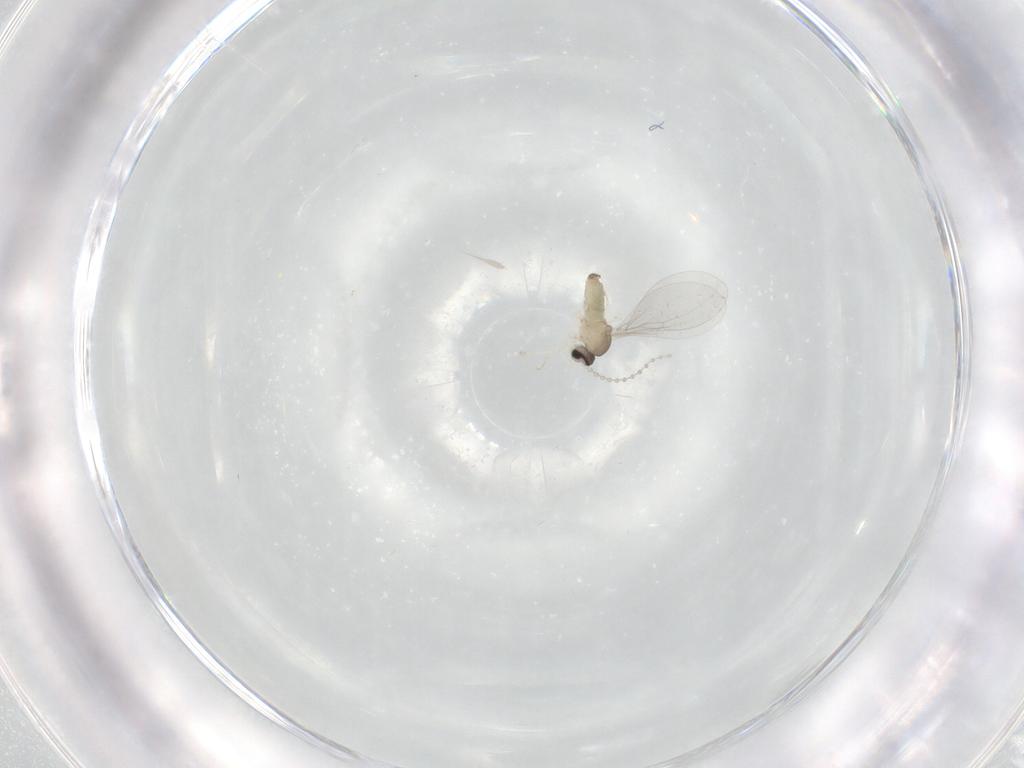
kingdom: Animalia
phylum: Arthropoda
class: Insecta
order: Diptera
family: Cecidomyiidae
